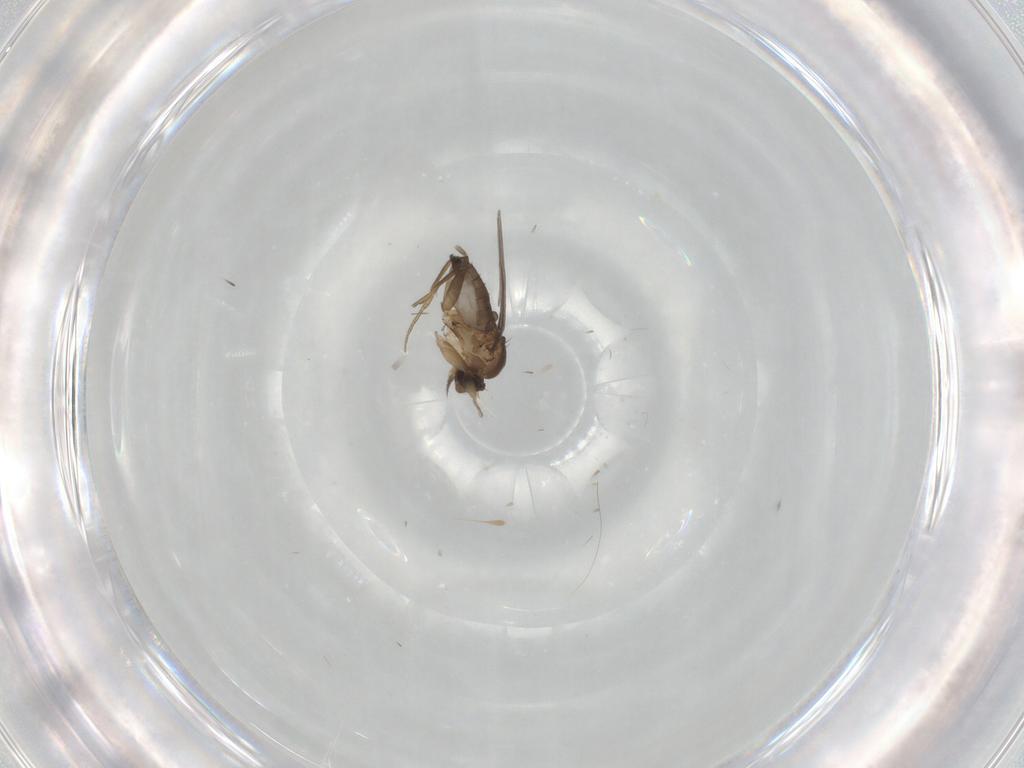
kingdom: Animalia
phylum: Arthropoda
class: Insecta
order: Diptera
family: Phoridae
